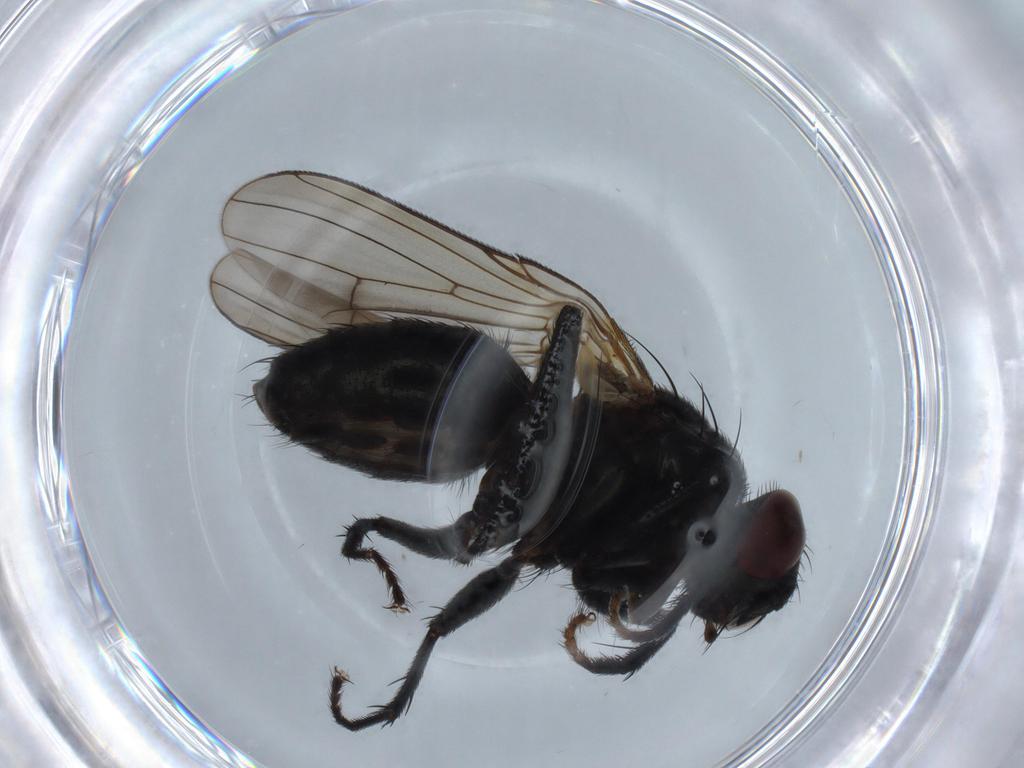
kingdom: Animalia
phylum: Arthropoda
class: Insecta
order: Diptera
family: Muscidae
